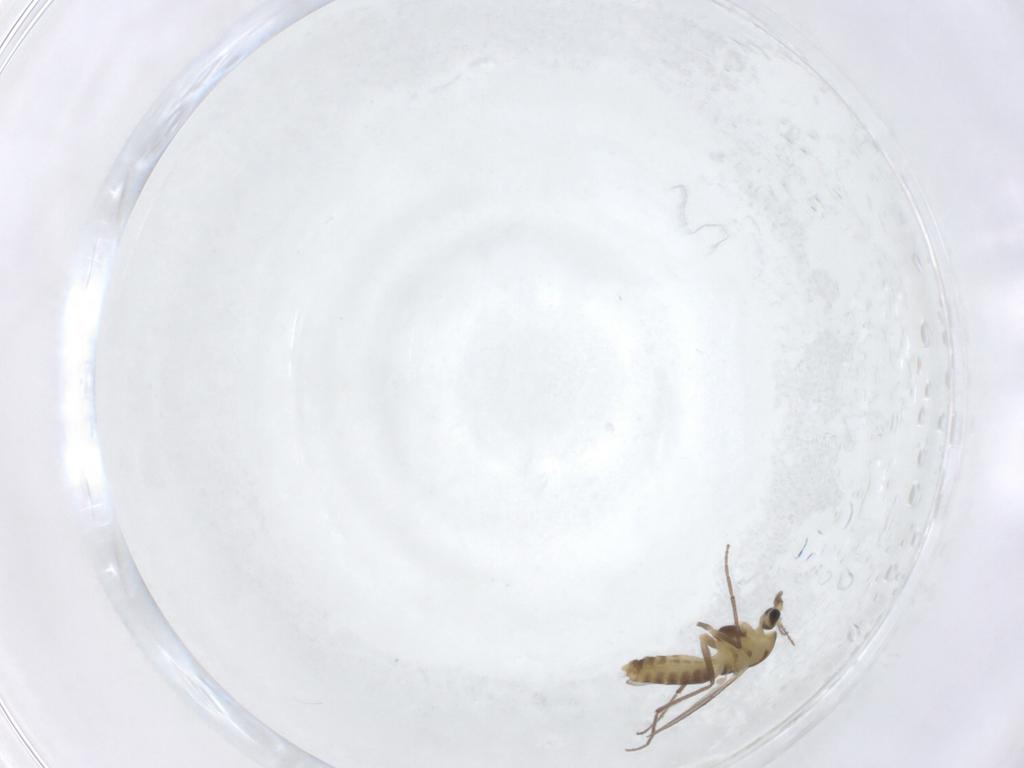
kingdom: Animalia
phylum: Arthropoda
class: Insecta
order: Diptera
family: Chironomidae
